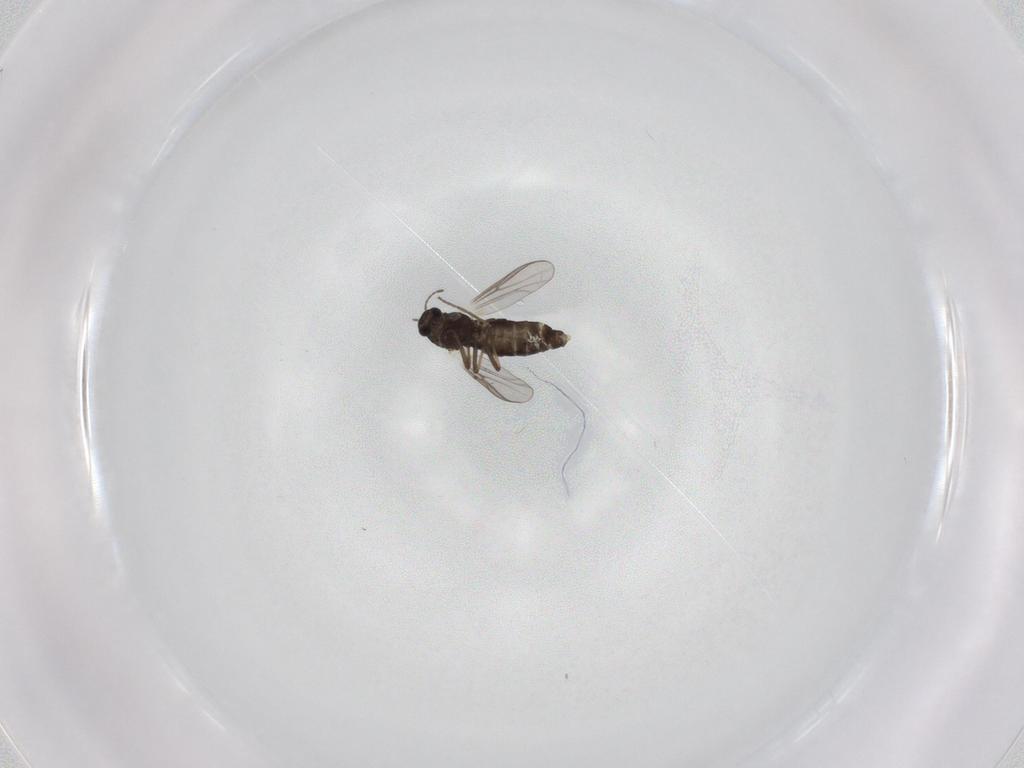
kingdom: Animalia
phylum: Arthropoda
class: Insecta
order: Diptera
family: Chironomidae
